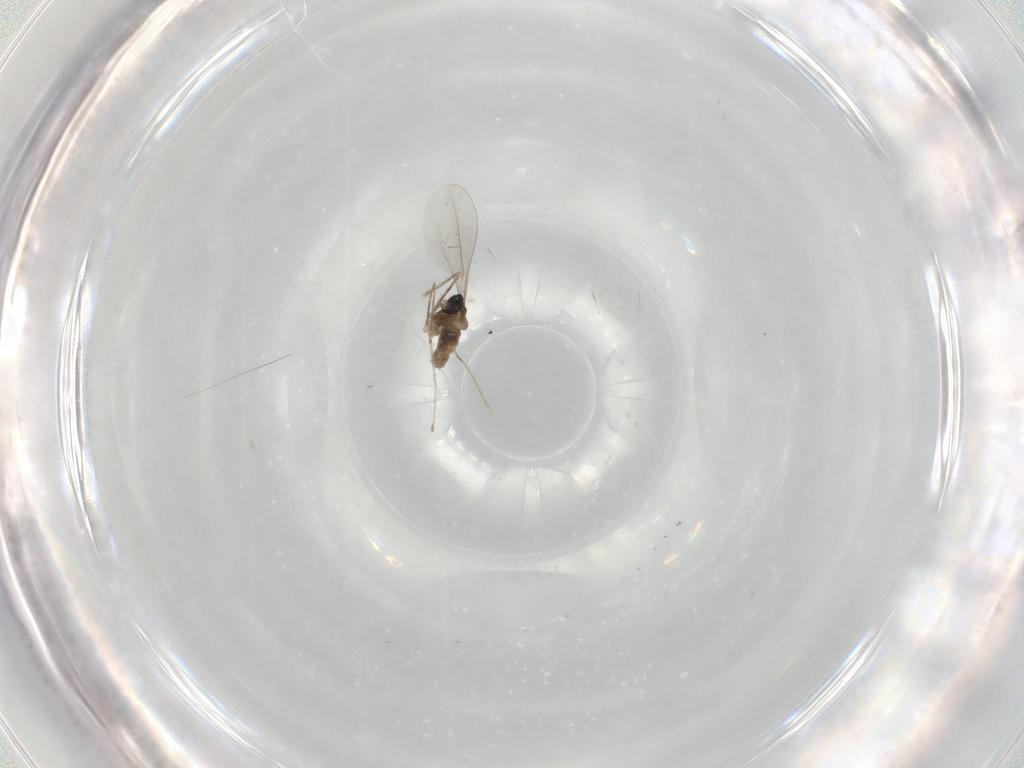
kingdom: Animalia
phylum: Arthropoda
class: Insecta
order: Diptera
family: Cecidomyiidae
